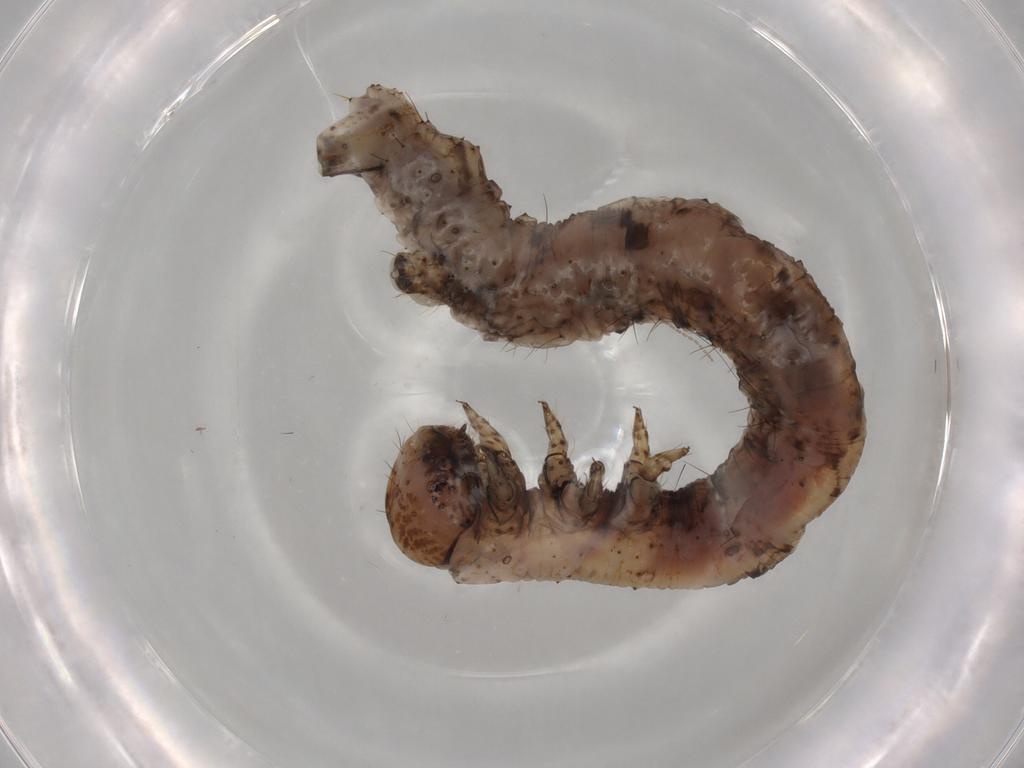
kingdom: Animalia
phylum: Arthropoda
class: Insecta
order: Lepidoptera
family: Geometridae
